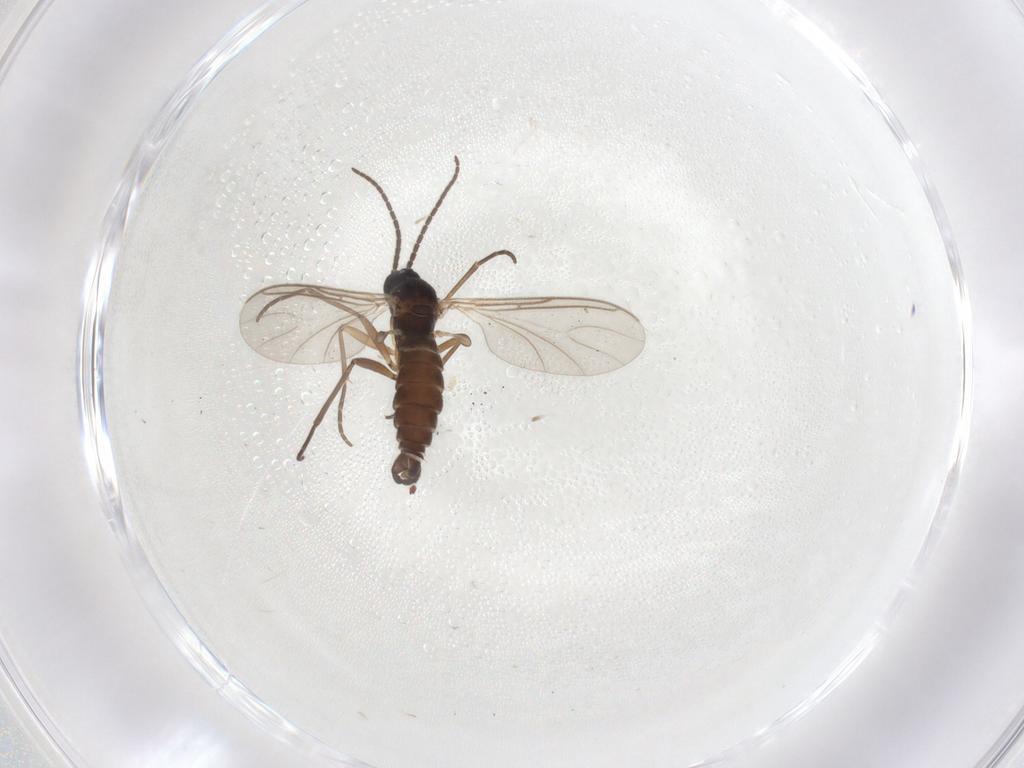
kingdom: Animalia
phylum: Arthropoda
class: Insecta
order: Diptera
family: Sciaridae
